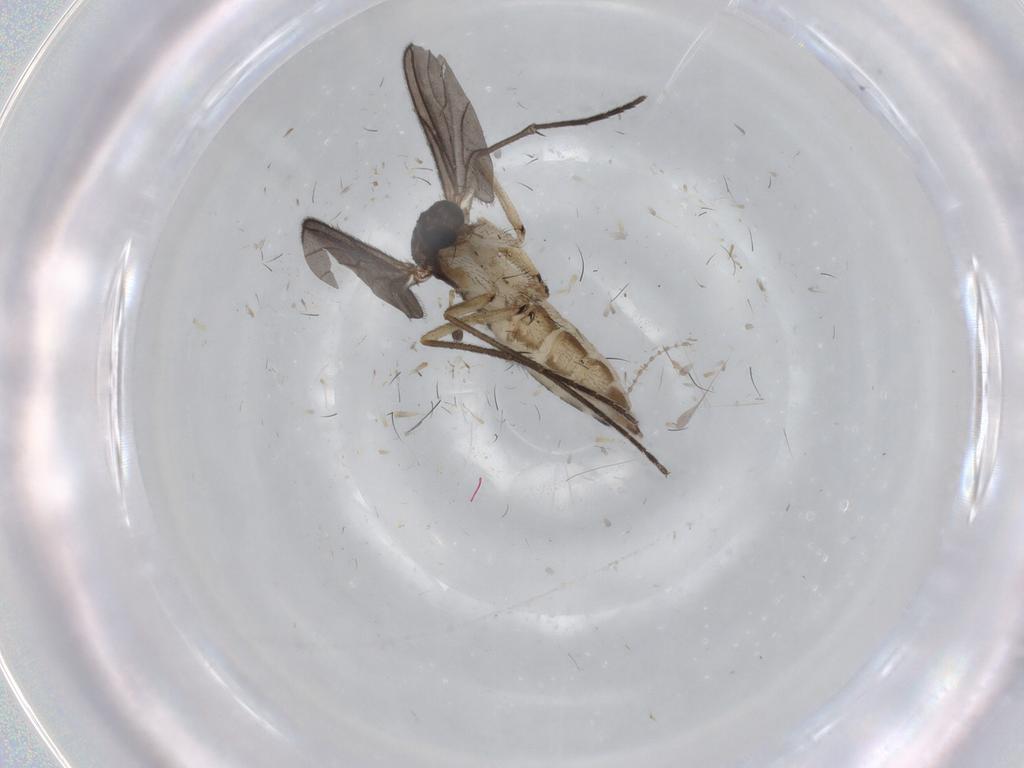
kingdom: Animalia
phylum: Arthropoda
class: Insecta
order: Diptera
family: Sciaridae
